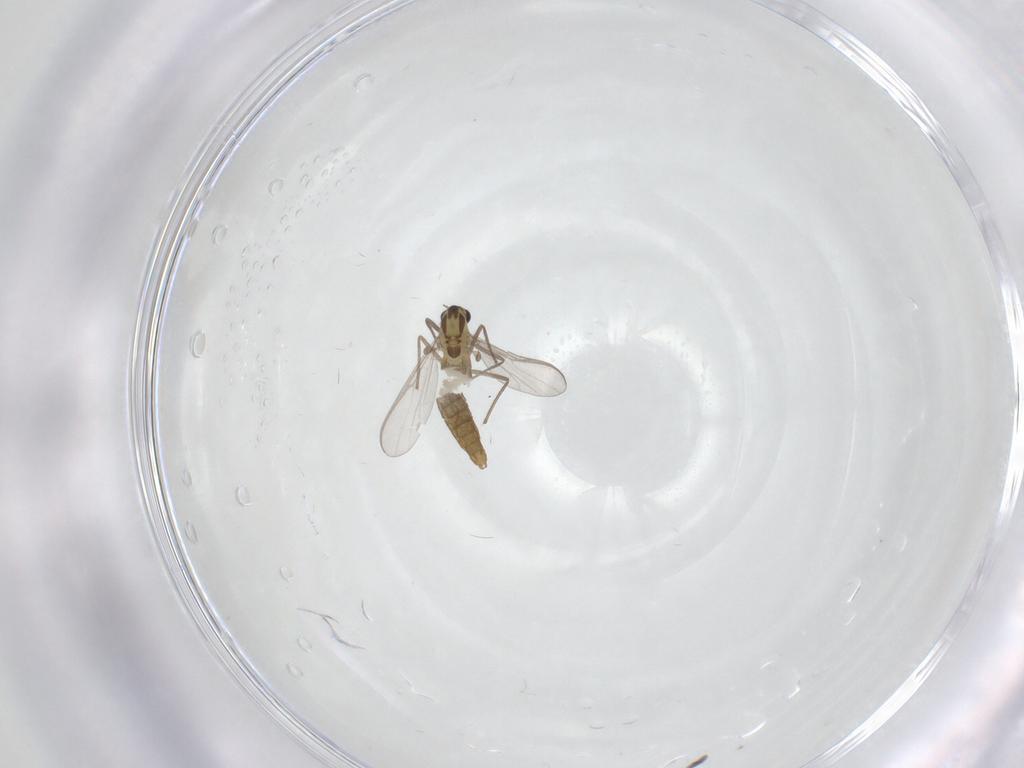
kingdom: Animalia
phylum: Arthropoda
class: Insecta
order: Diptera
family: Chironomidae
